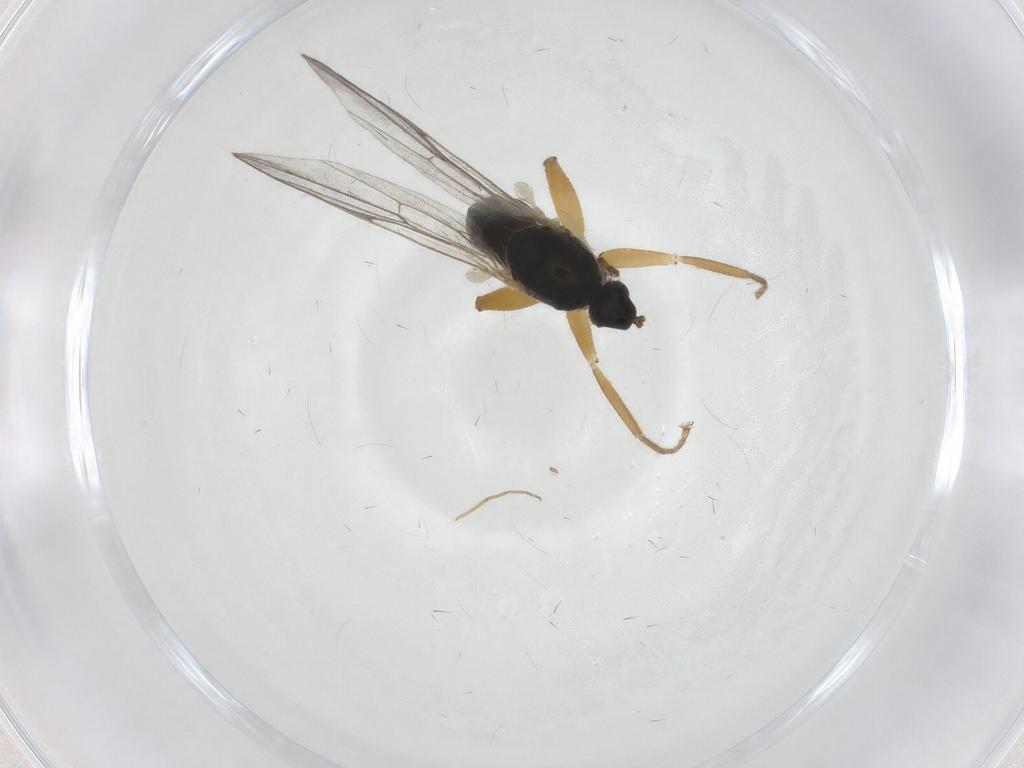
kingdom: Animalia
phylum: Arthropoda
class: Insecta
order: Diptera
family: Hybotidae
